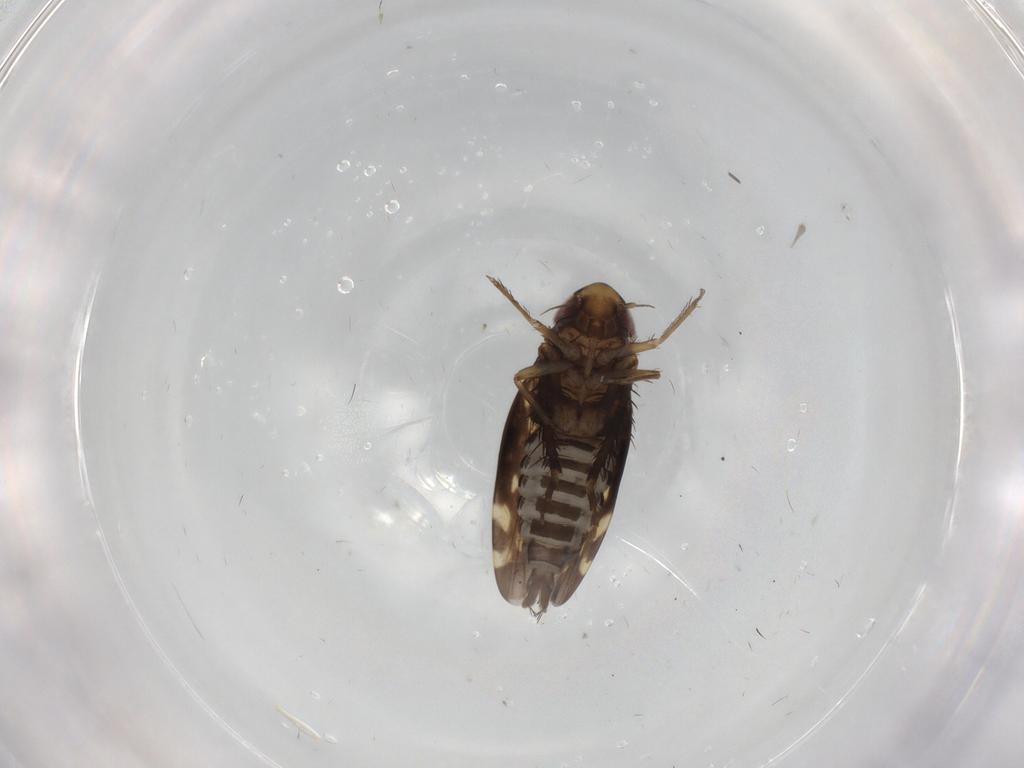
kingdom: Animalia
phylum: Arthropoda
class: Insecta
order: Hemiptera
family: Cicadellidae
